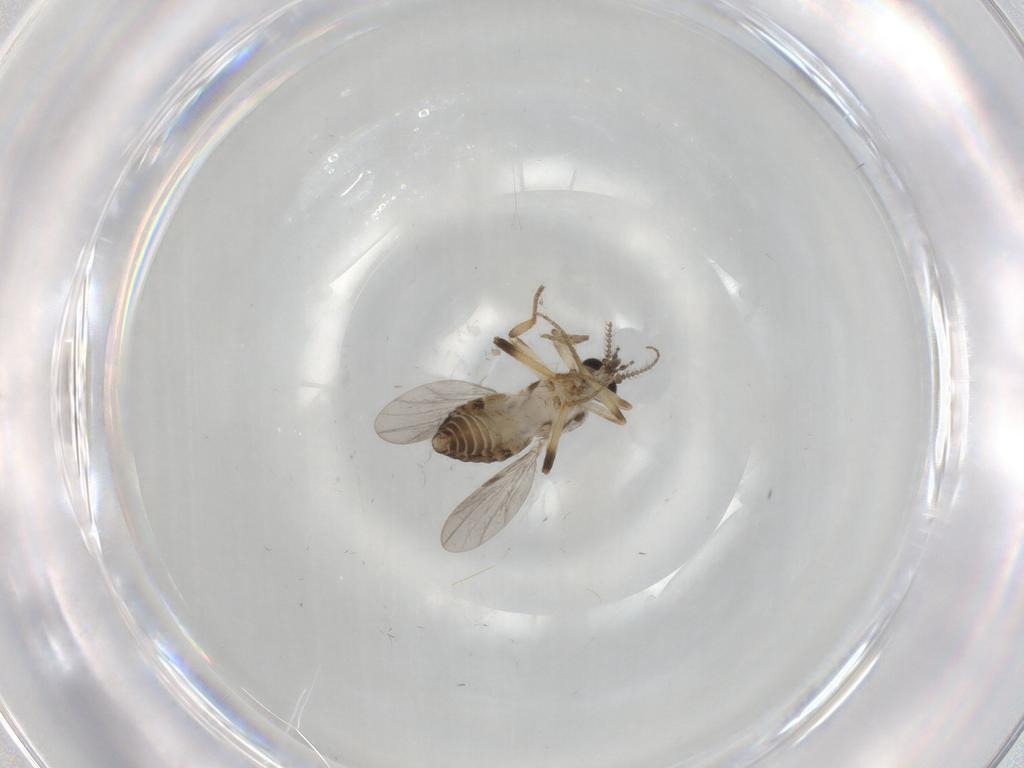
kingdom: Animalia
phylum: Arthropoda
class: Insecta
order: Diptera
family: Ceratopogonidae
